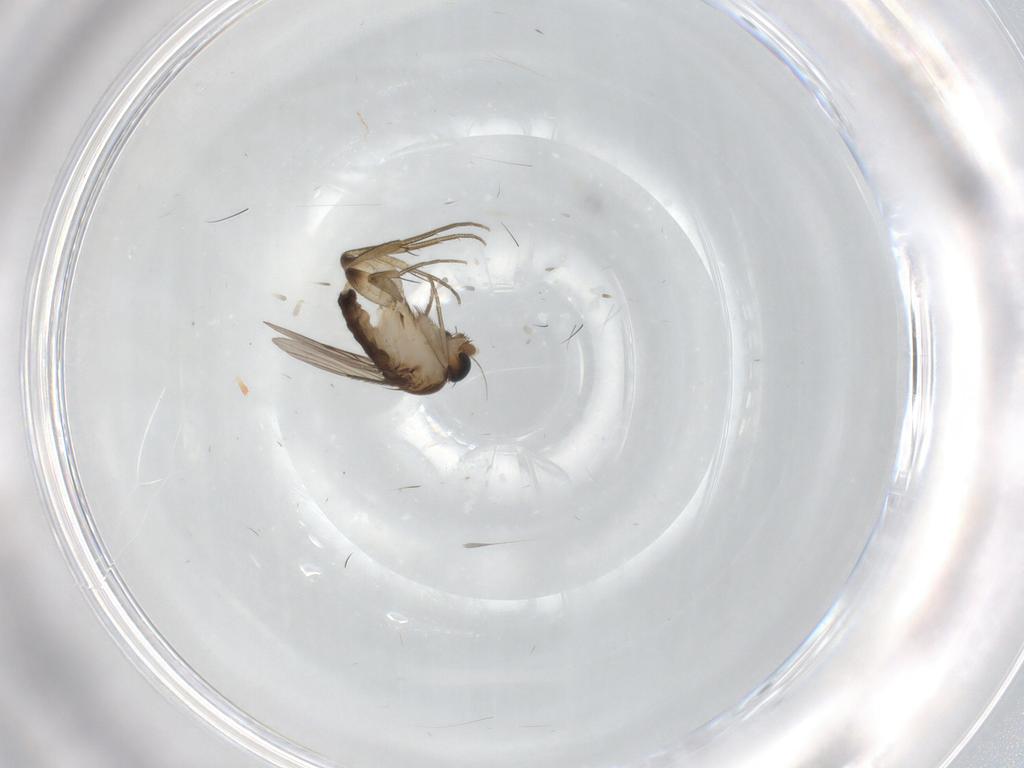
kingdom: Animalia
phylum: Arthropoda
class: Insecta
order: Diptera
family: Phoridae
